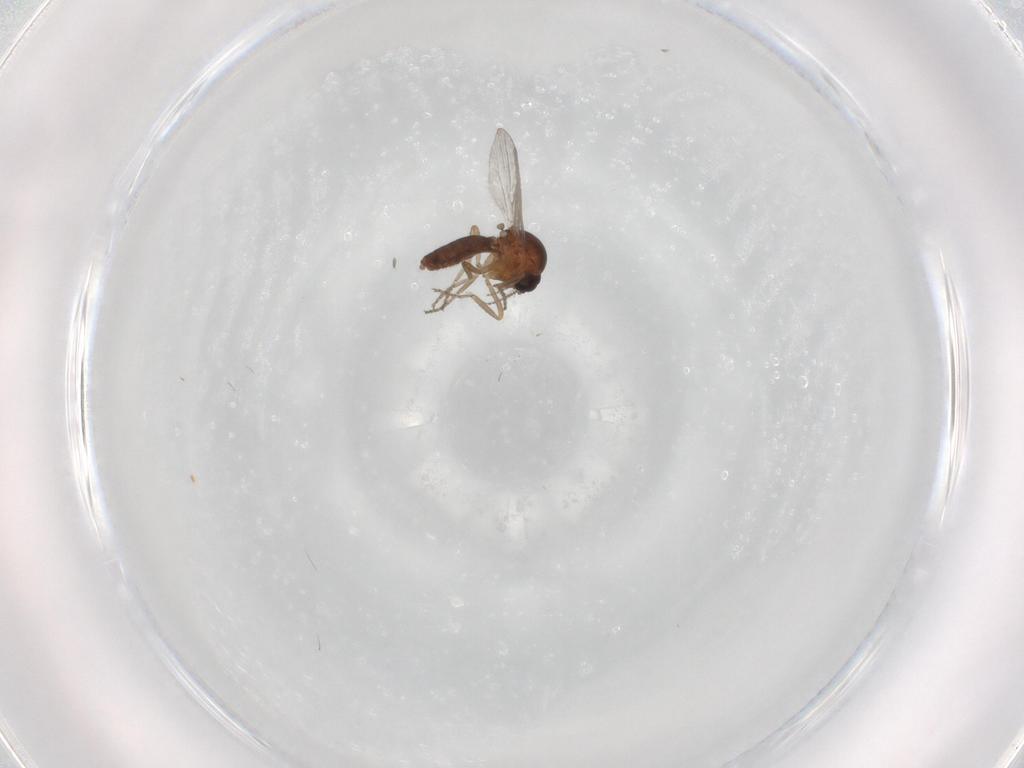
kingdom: Animalia
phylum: Arthropoda
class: Insecta
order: Diptera
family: Ceratopogonidae
